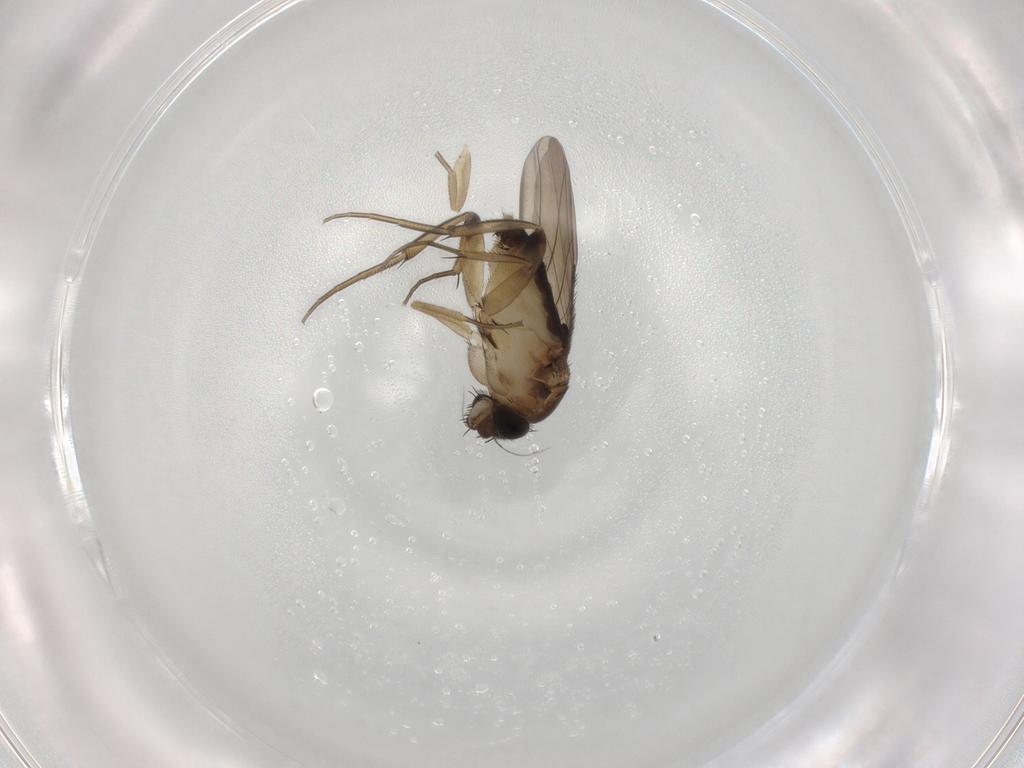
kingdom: Animalia
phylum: Arthropoda
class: Insecta
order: Diptera
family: Phoridae
